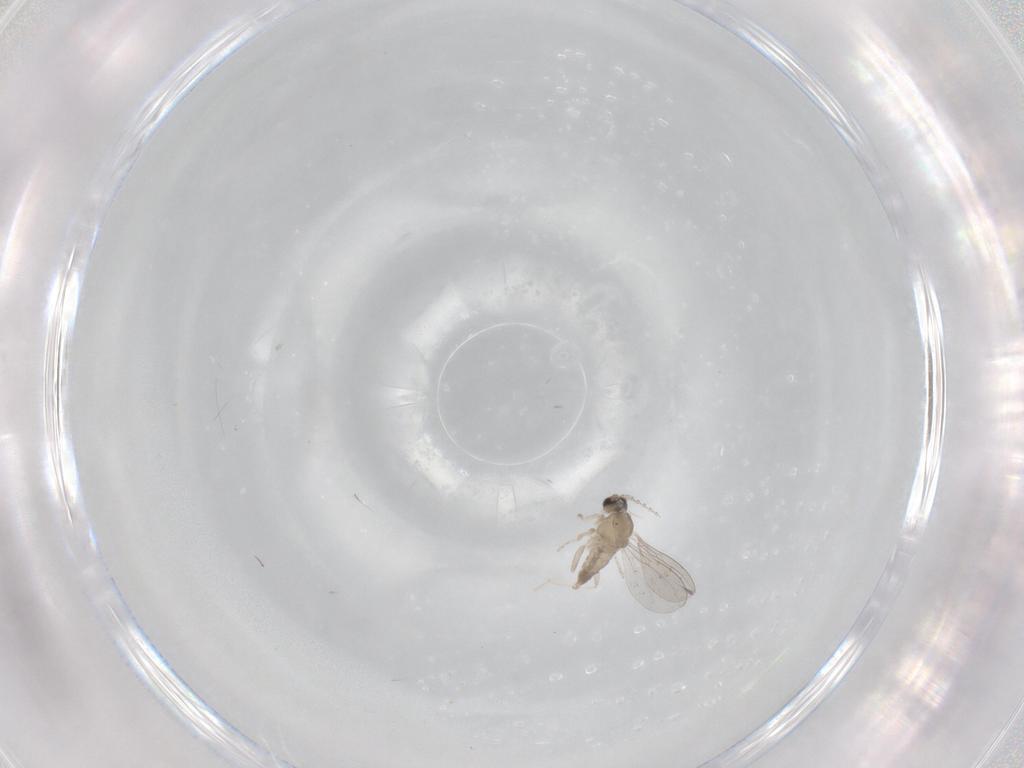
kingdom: Animalia
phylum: Arthropoda
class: Insecta
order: Diptera
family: Cecidomyiidae
